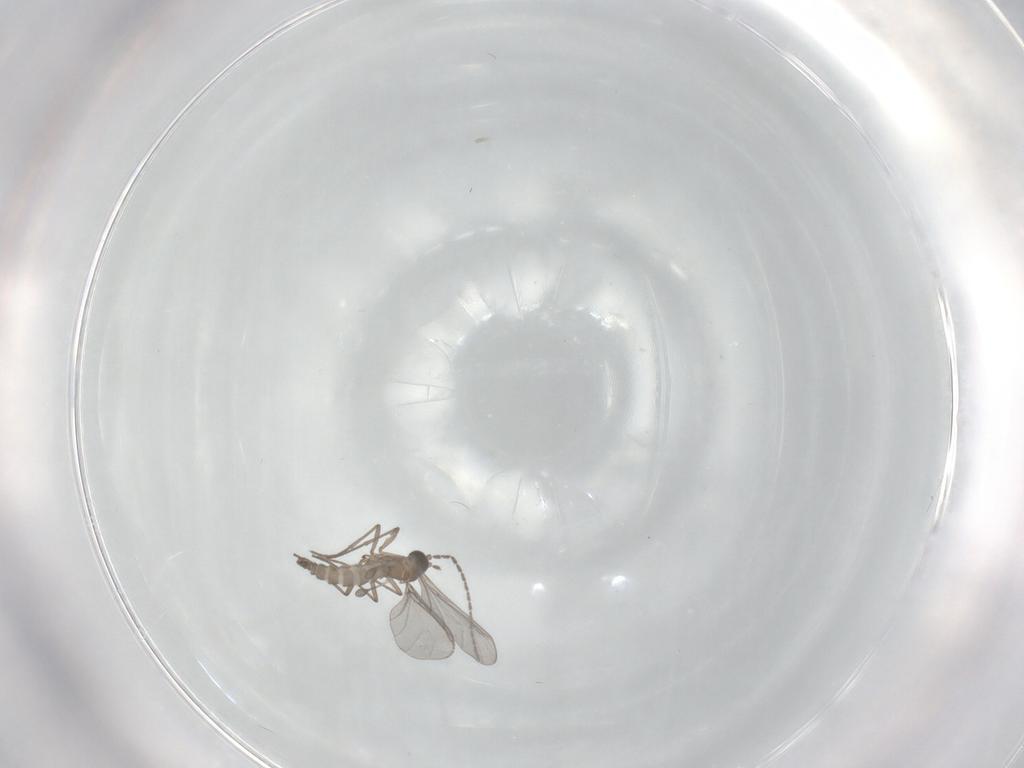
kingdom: Animalia
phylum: Arthropoda
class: Insecta
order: Diptera
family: Sciaridae
